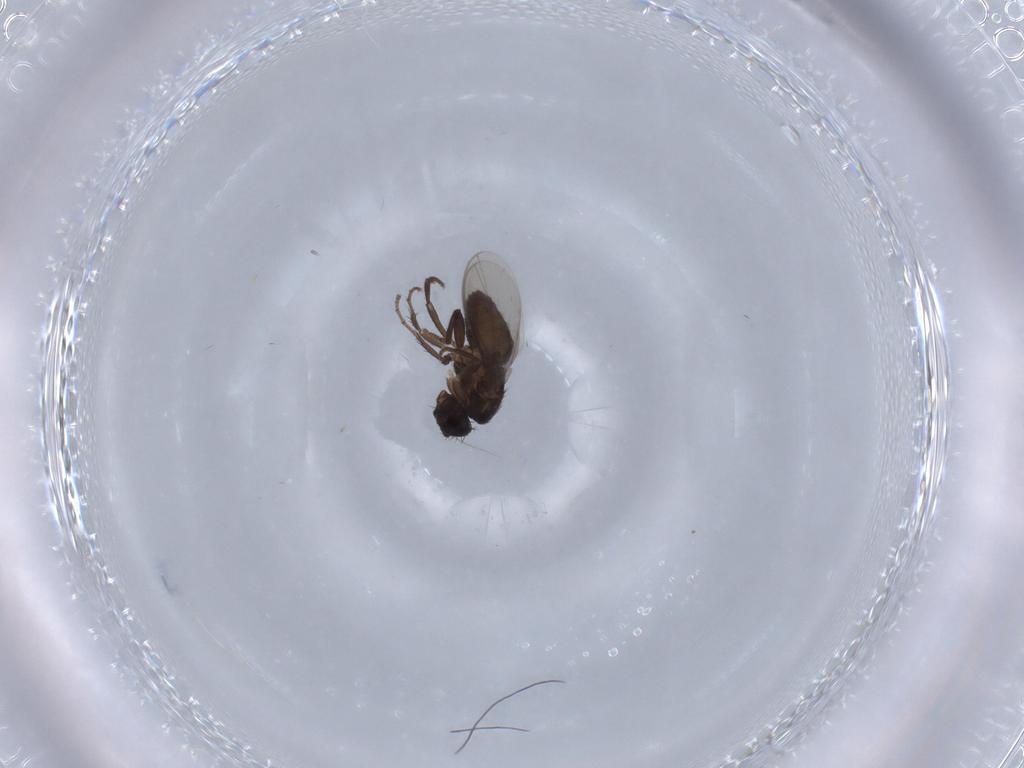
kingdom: Animalia
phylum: Arthropoda
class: Insecta
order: Diptera
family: Sphaeroceridae
